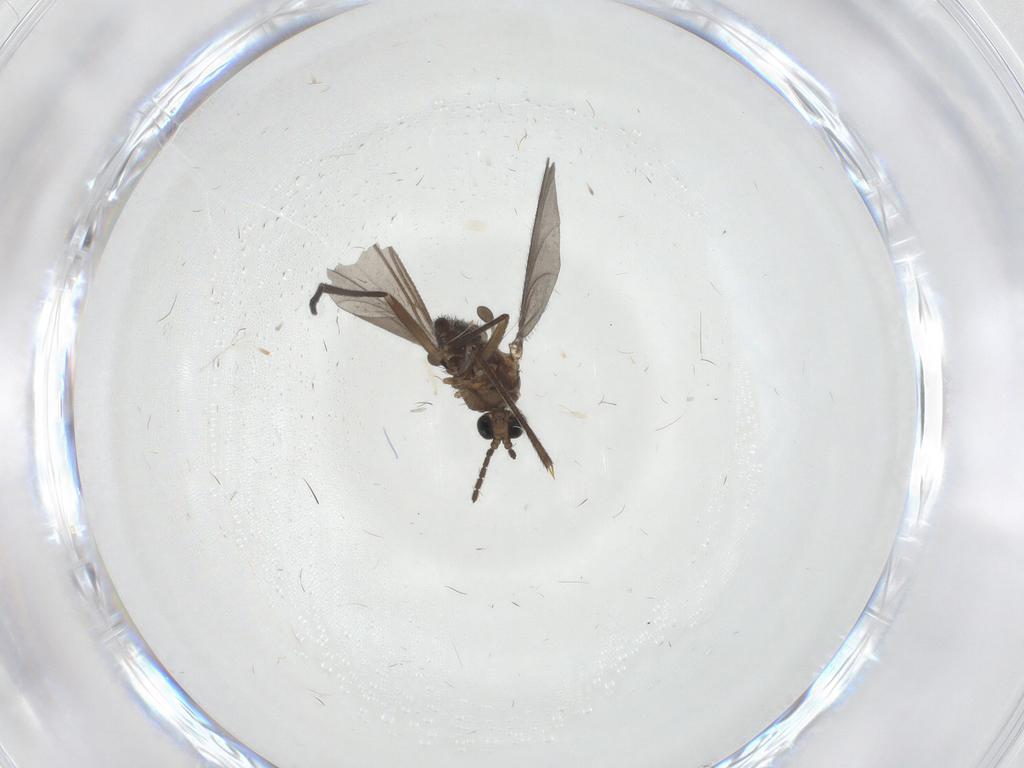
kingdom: Animalia
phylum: Arthropoda
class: Insecta
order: Diptera
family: Sciaridae
